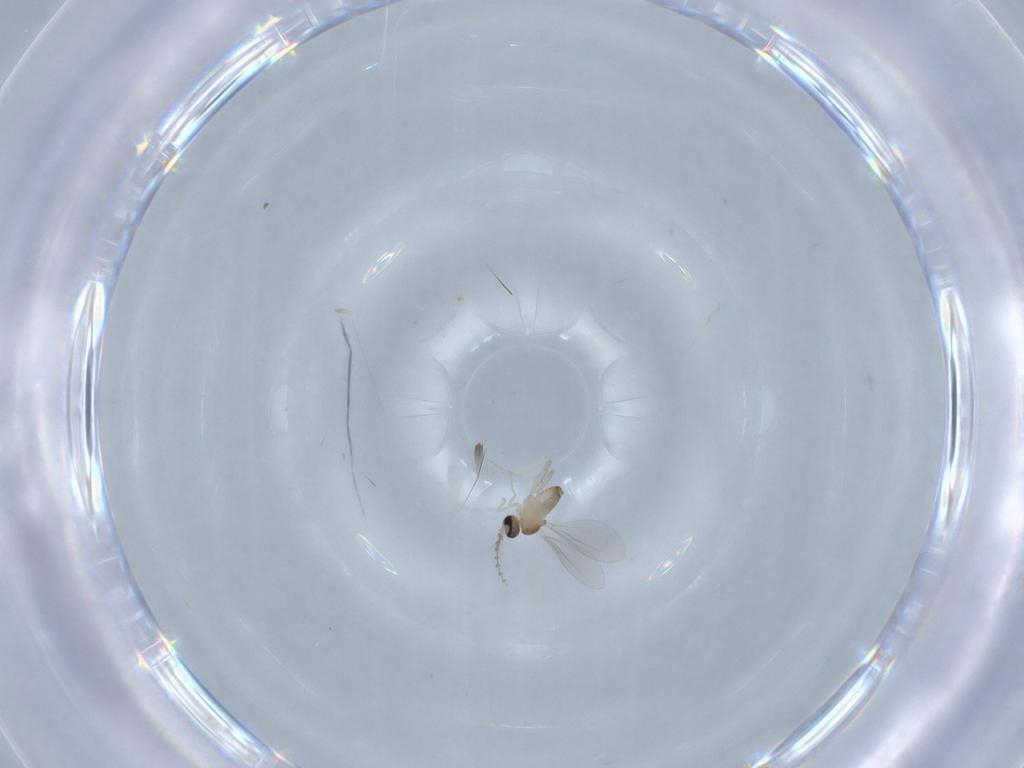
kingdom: Animalia
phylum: Arthropoda
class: Insecta
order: Diptera
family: Cecidomyiidae
